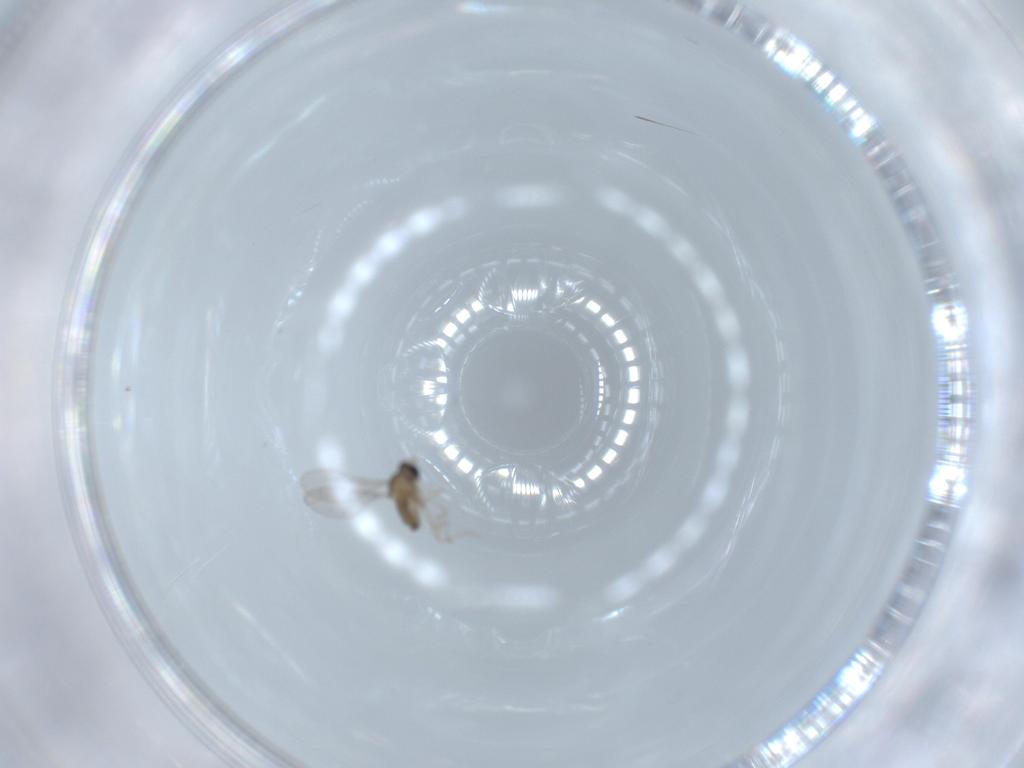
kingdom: Animalia
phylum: Arthropoda
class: Insecta
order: Diptera
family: Cecidomyiidae
